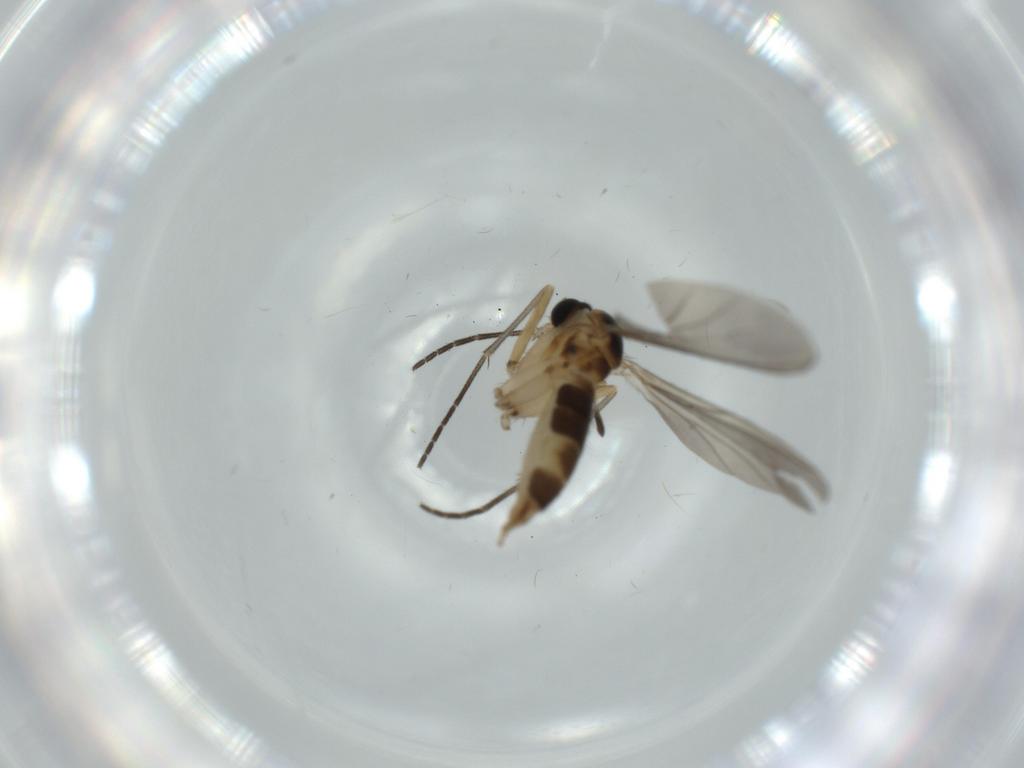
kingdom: Animalia
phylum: Arthropoda
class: Insecta
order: Diptera
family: Sciaridae
